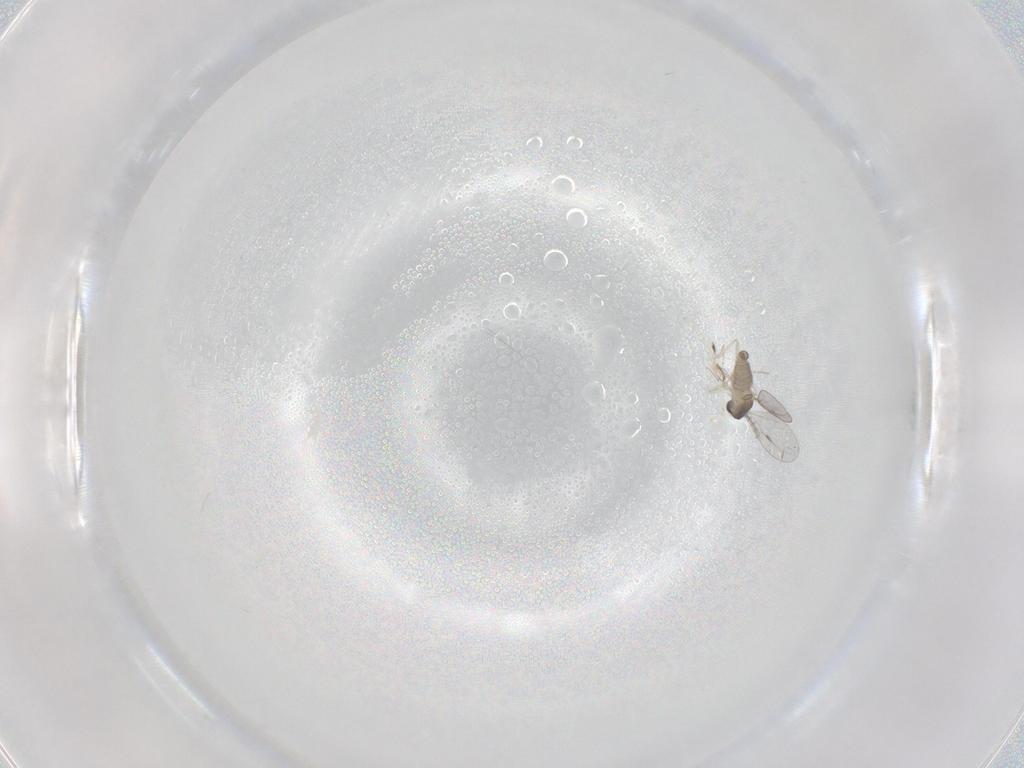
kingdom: Animalia
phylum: Arthropoda
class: Insecta
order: Diptera
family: Cecidomyiidae
